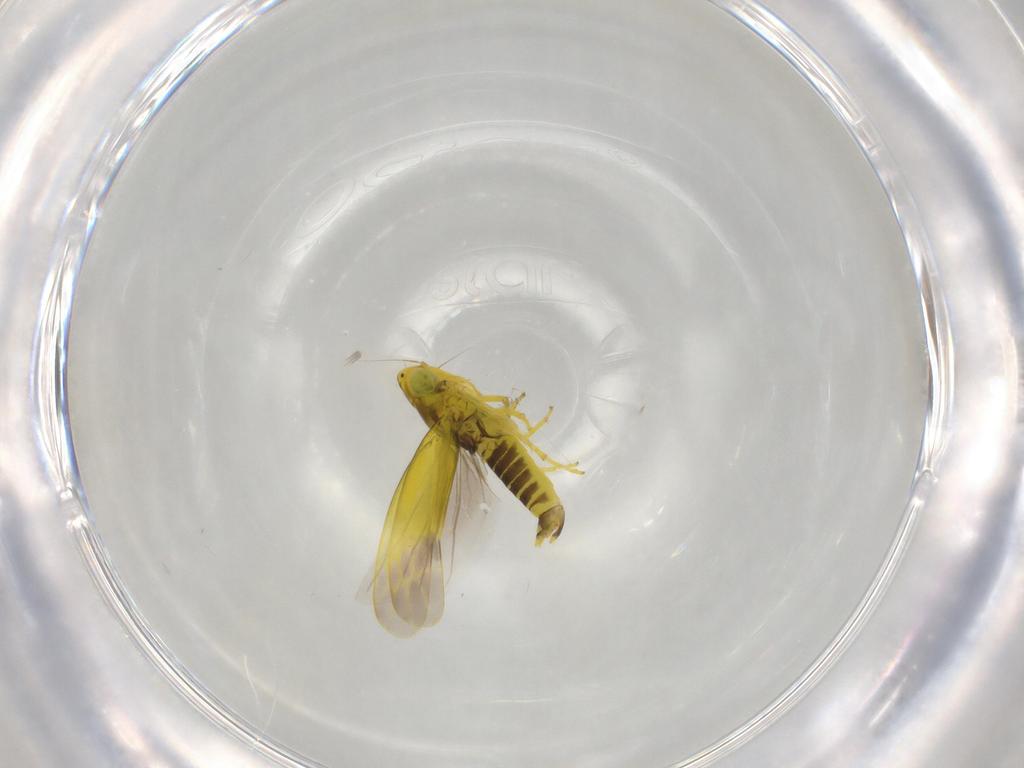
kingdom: Animalia
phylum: Arthropoda
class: Insecta
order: Hemiptera
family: Cicadellidae
